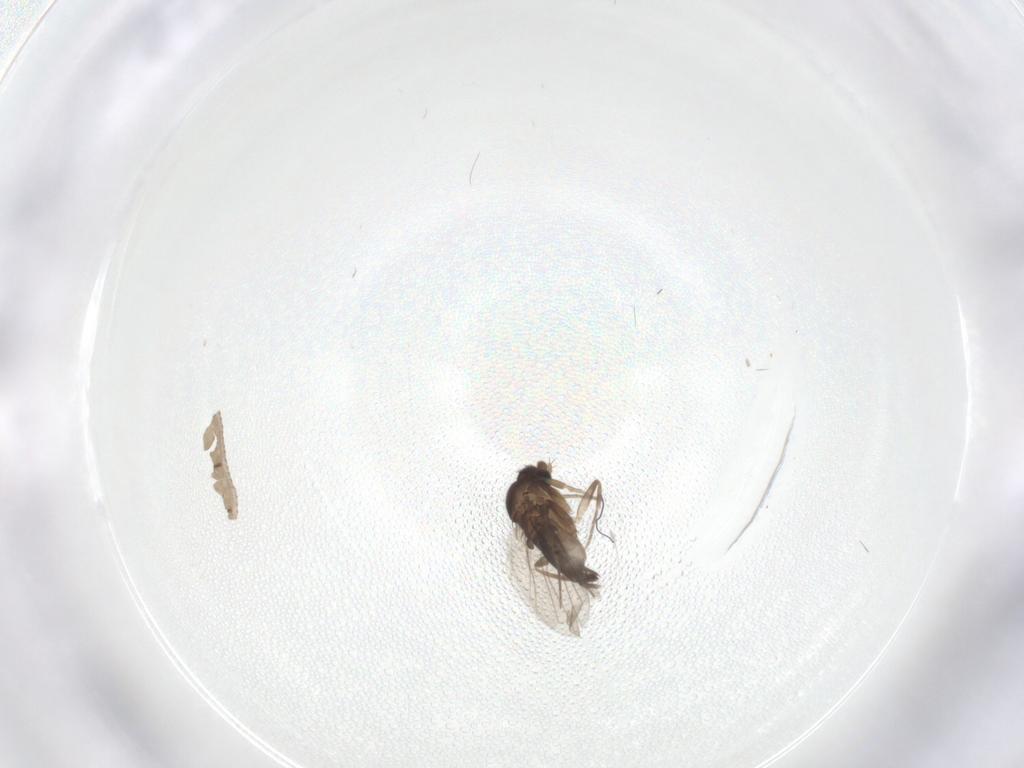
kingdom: Animalia
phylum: Arthropoda
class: Insecta
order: Diptera
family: Phoridae
